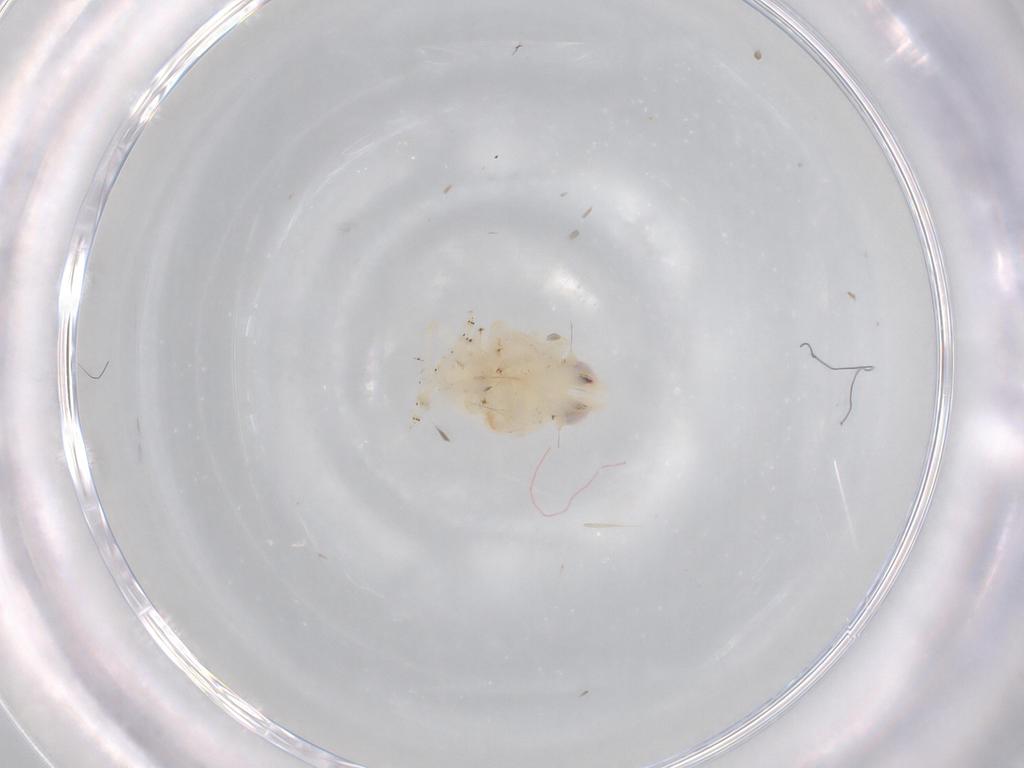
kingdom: Animalia
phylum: Arthropoda
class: Insecta
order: Hemiptera
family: Nogodinidae
